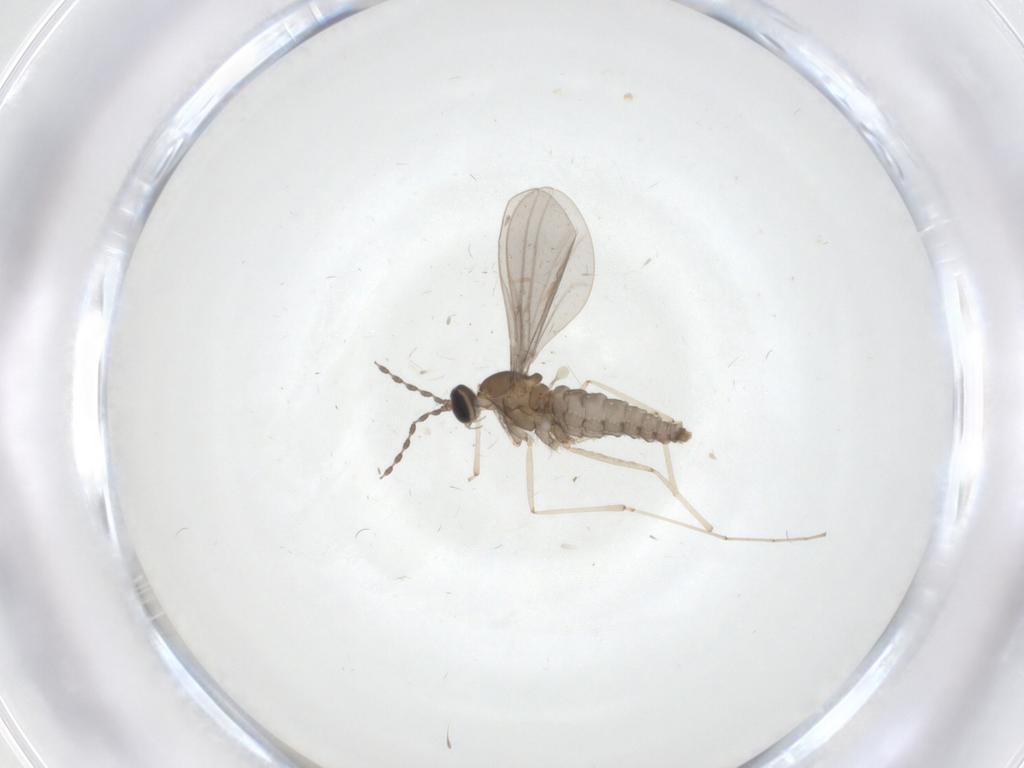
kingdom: Animalia
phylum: Arthropoda
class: Insecta
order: Diptera
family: Cecidomyiidae
